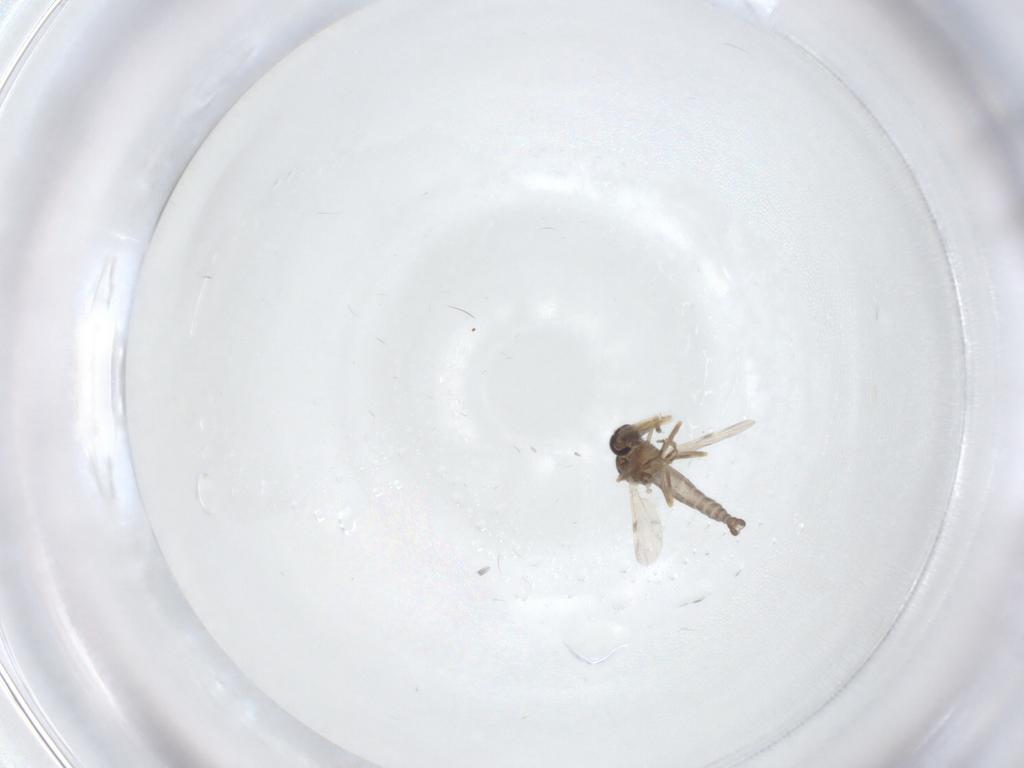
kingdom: Animalia
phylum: Arthropoda
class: Insecta
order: Diptera
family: Ceratopogonidae
